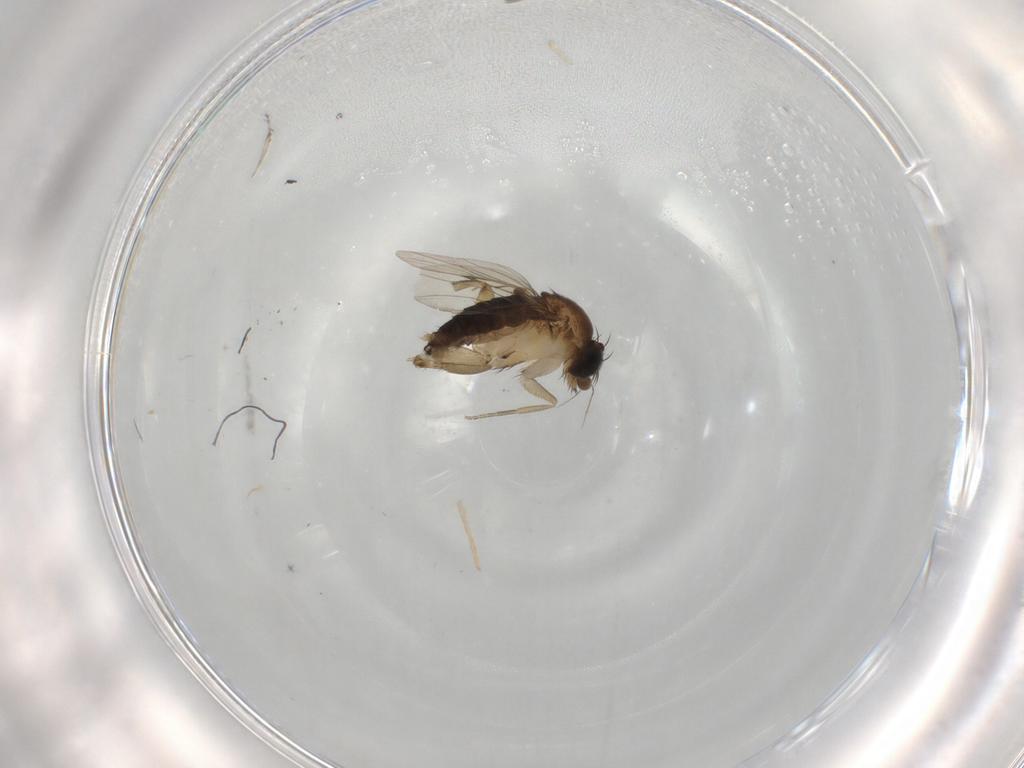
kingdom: Animalia
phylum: Arthropoda
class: Insecta
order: Diptera
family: Phoridae
